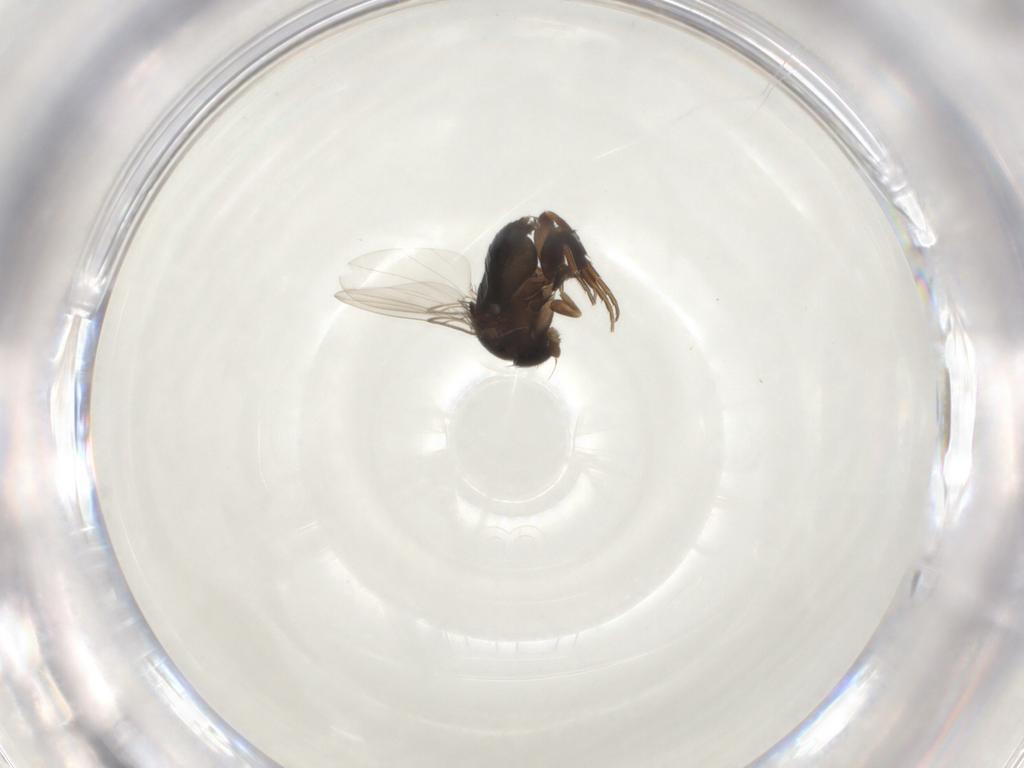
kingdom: Animalia
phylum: Arthropoda
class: Insecta
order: Diptera
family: Phoridae
